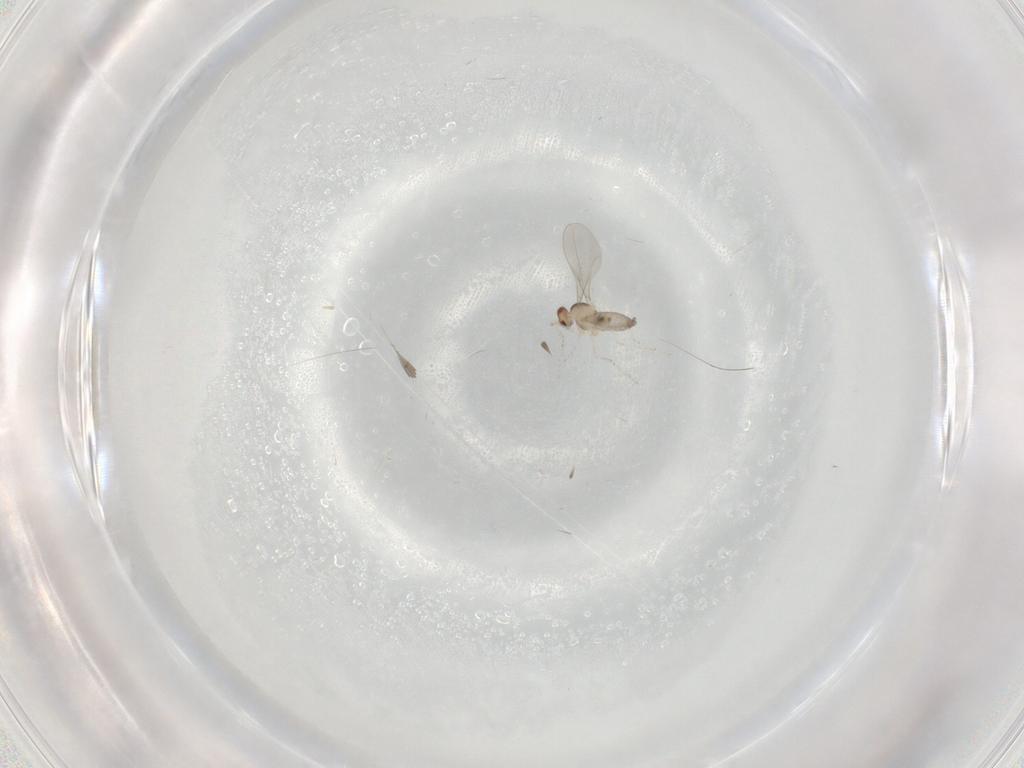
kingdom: Animalia
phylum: Arthropoda
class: Insecta
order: Diptera
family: Cecidomyiidae
